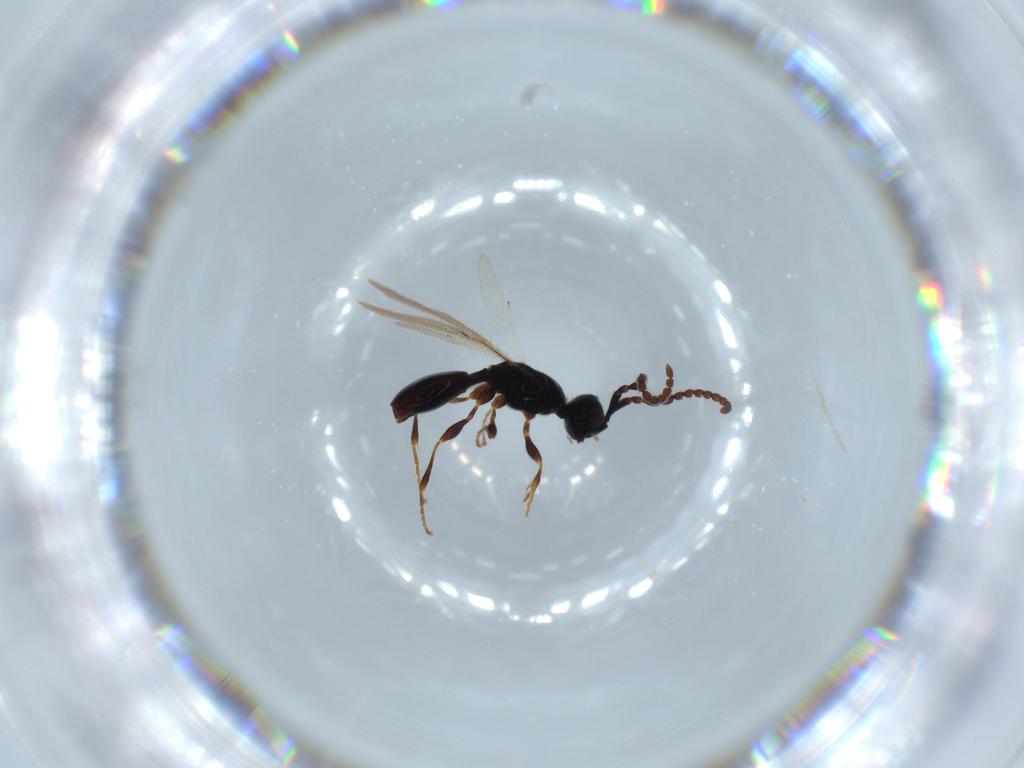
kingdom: Animalia
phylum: Arthropoda
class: Insecta
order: Hymenoptera
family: Diapriidae
